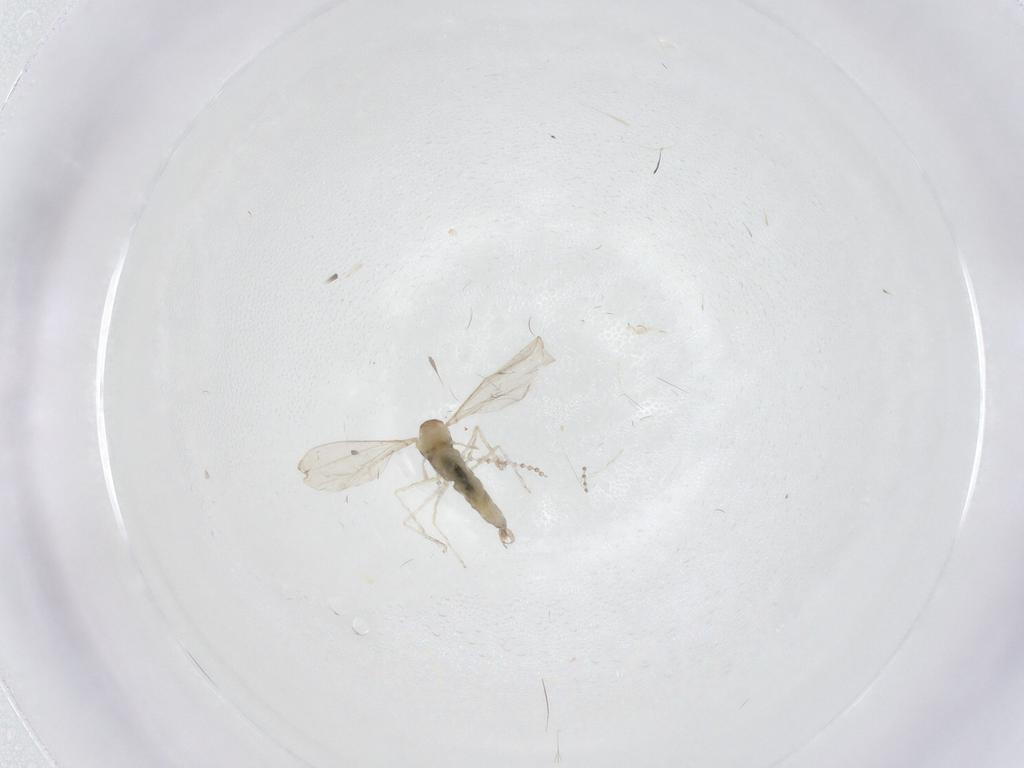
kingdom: Animalia
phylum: Arthropoda
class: Insecta
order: Diptera
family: Cecidomyiidae
